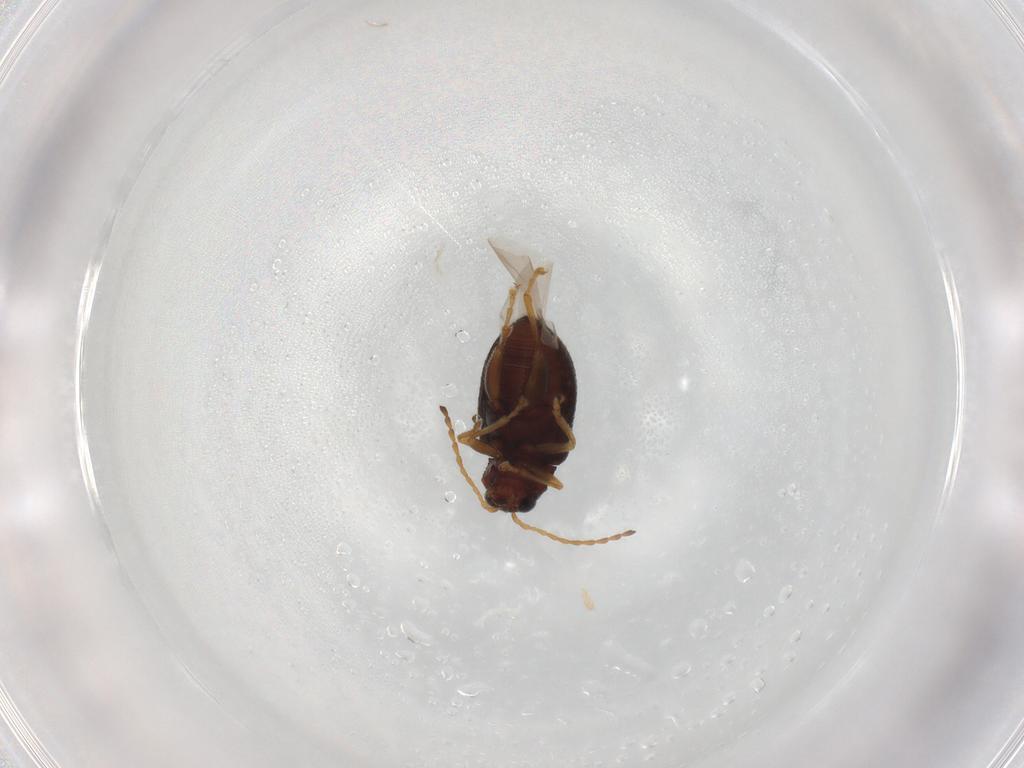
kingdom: Animalia
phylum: Arthropoda
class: Insecta
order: Coleoptera
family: Chrysomelidae
